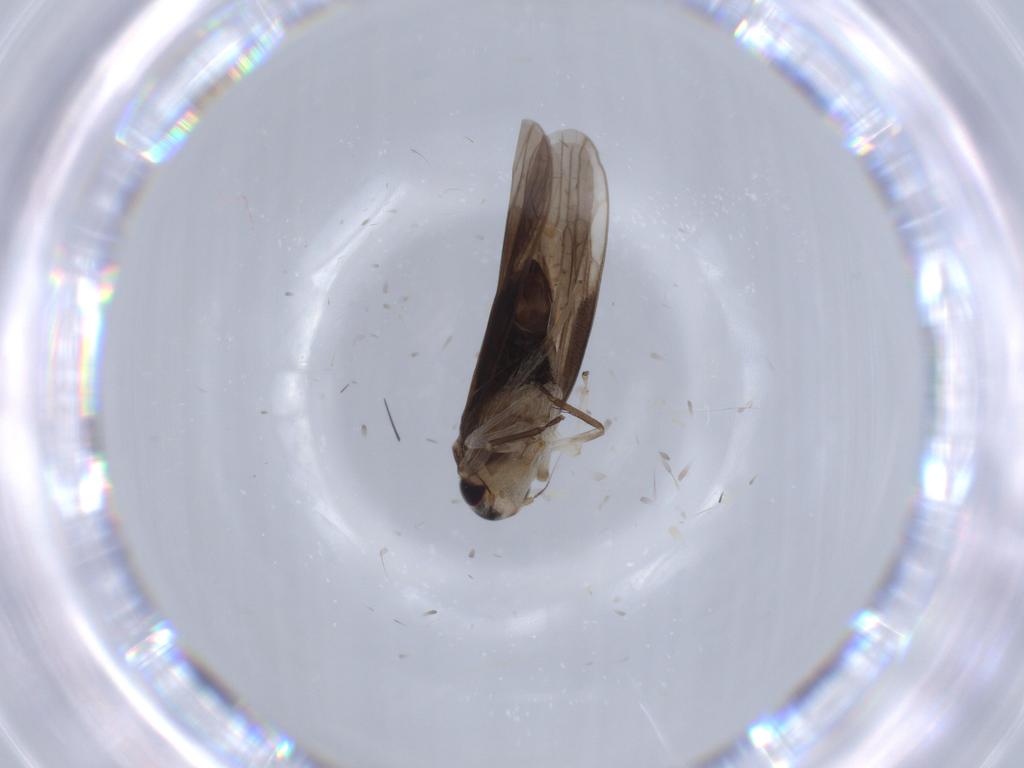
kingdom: Animalia
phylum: Arthropoda
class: Insecta
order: Hemiptera
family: Cicadellidae
